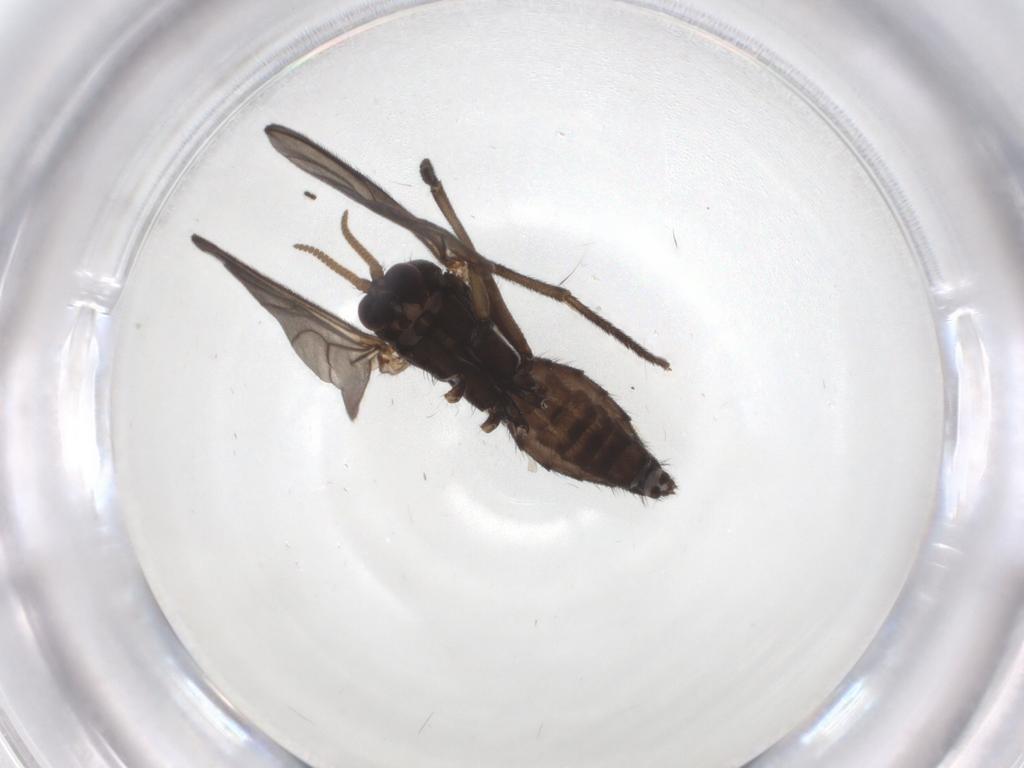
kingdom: Animalia
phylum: Arthropoda
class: Insecta
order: Diptera
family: Mycetophilidae
